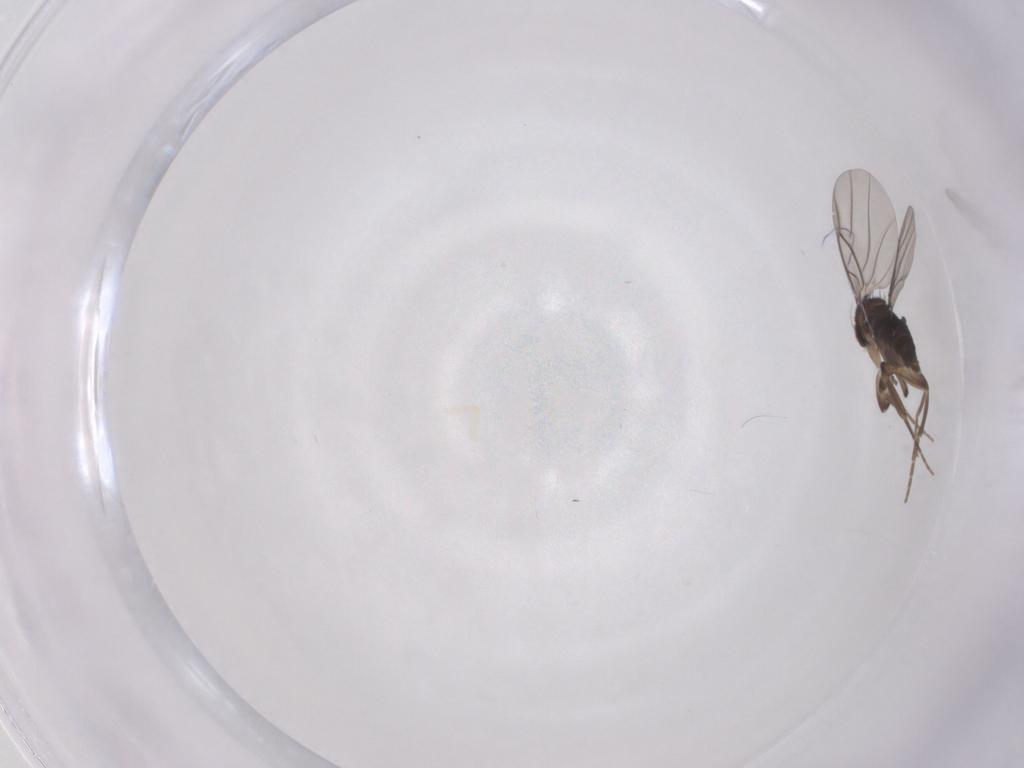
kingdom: Animalia
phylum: Arthropoda
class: Insecta
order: Diptera
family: Phoridae
